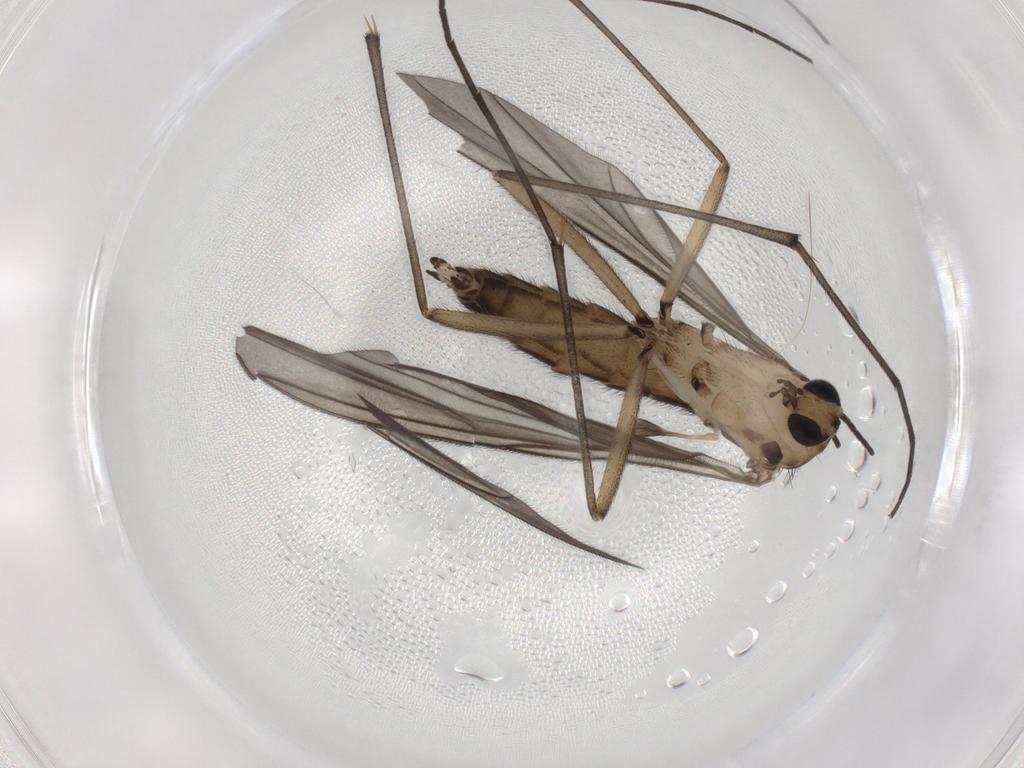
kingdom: Animalia
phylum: Arthropoda
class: Insecta
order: Diptera
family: Sciaridae
